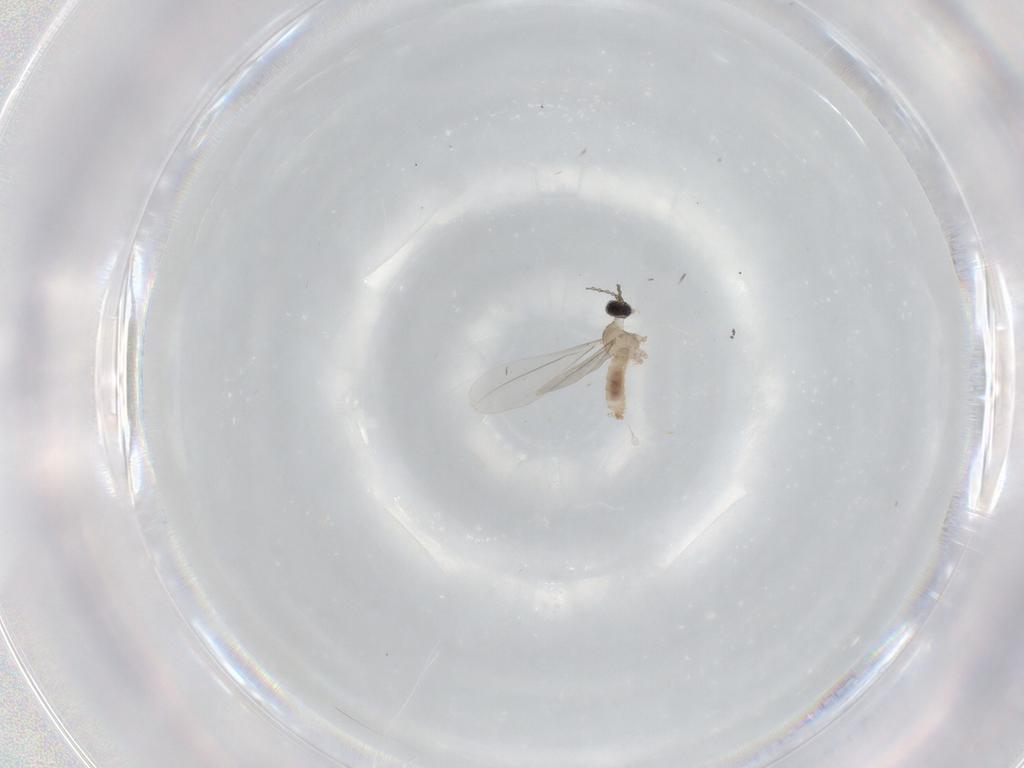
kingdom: Animalia
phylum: Arthropoda
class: Insecta
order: Diptera
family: Cecidomyiidae
